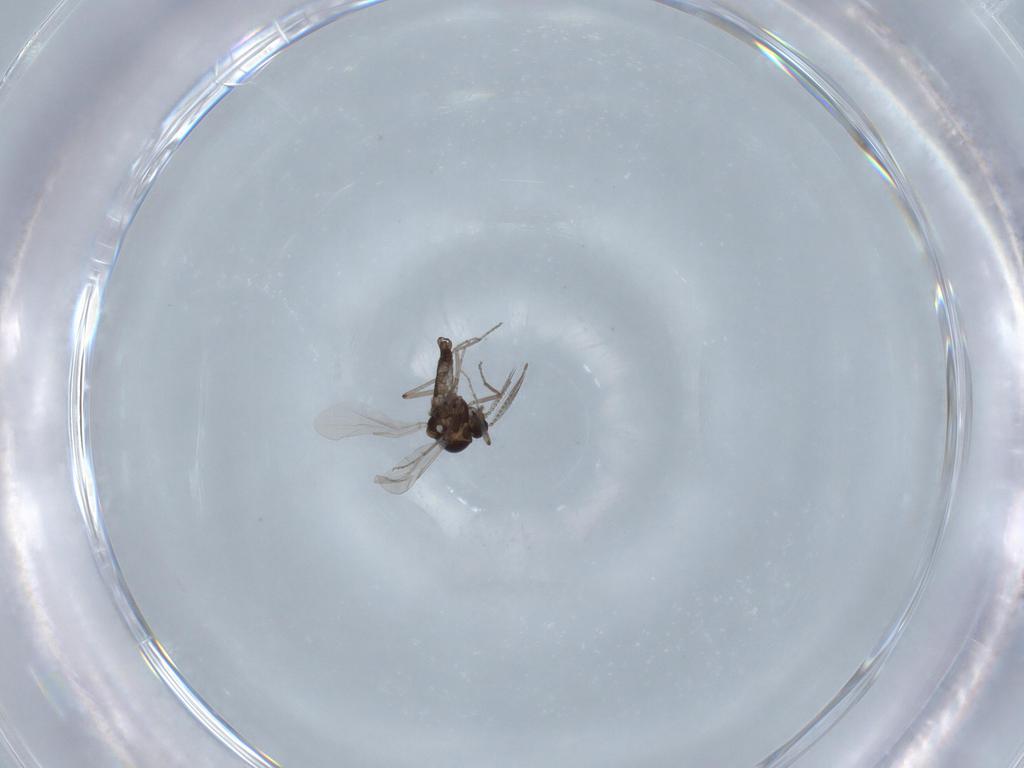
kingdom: Animalia
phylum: Arthropoda
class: Insecta
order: Diptera
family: Ceratopogonidae
